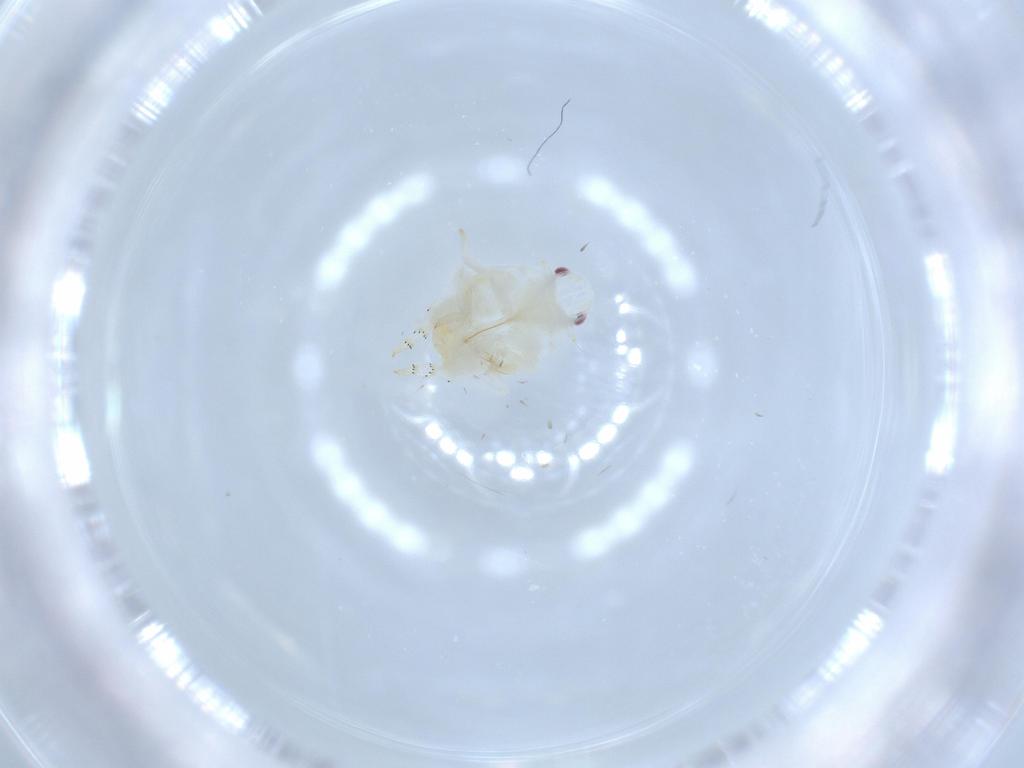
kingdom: Animalia
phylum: Arthropoda
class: Insecta
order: Hemiptera
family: Flatidae
